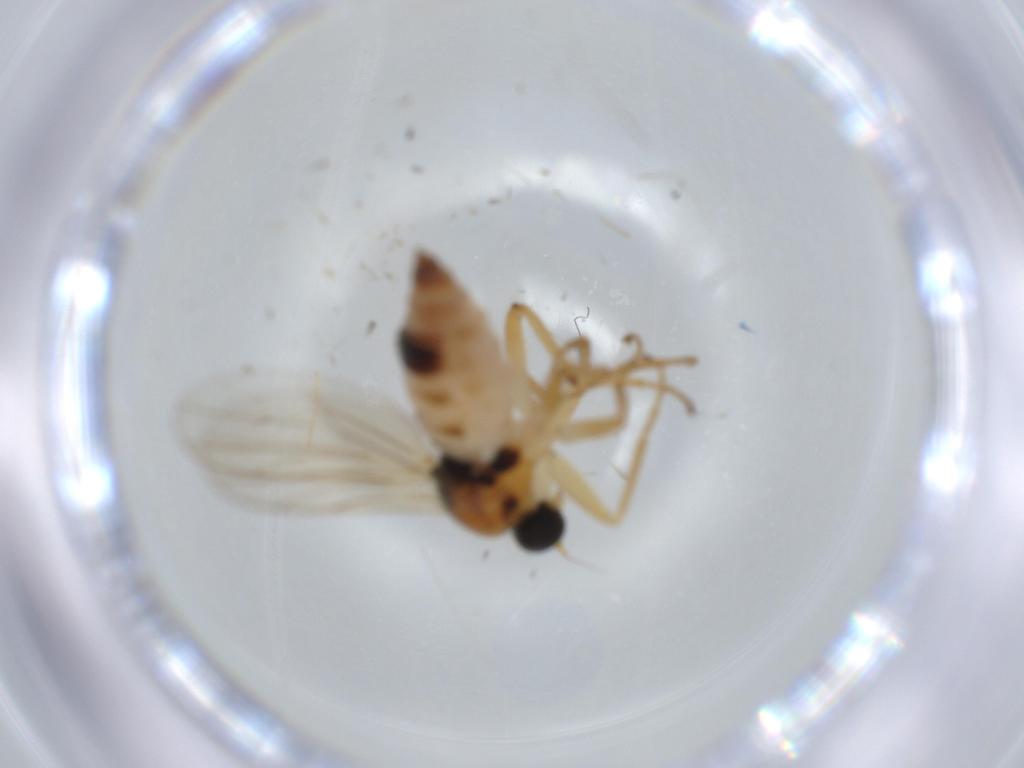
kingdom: Animalia
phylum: Arthropoda
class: Insecta
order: Diptera
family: Hybotidae
